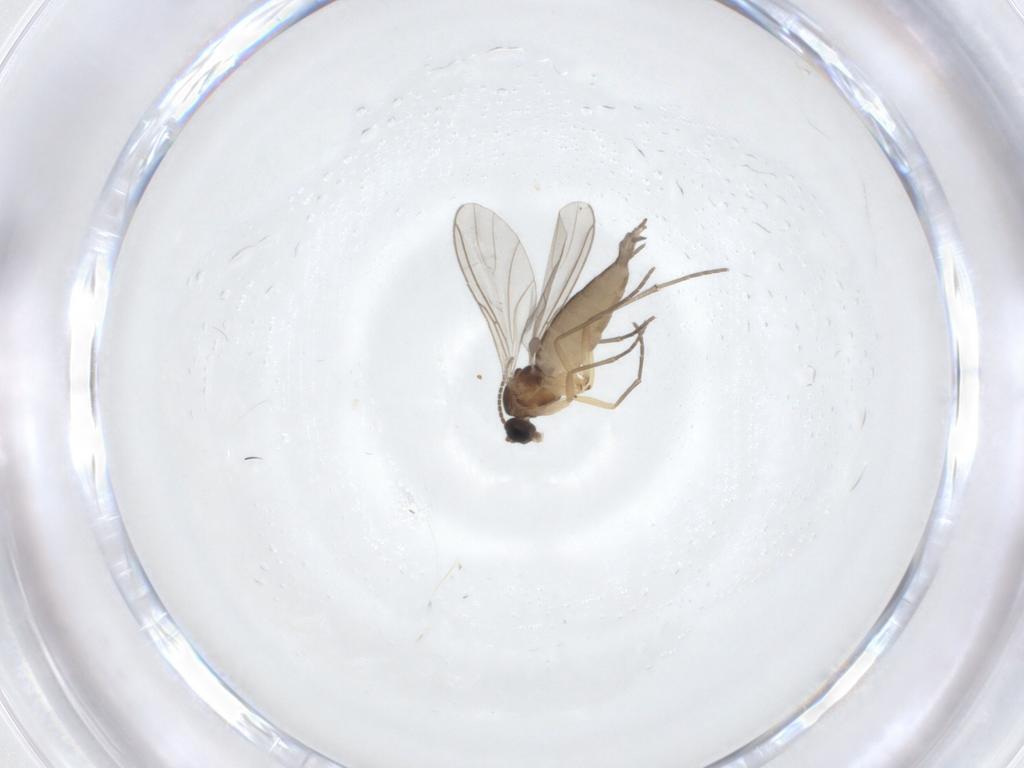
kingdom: Animalia
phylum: Arthropoda
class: Insecta
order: Diptera
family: Sciaridae
